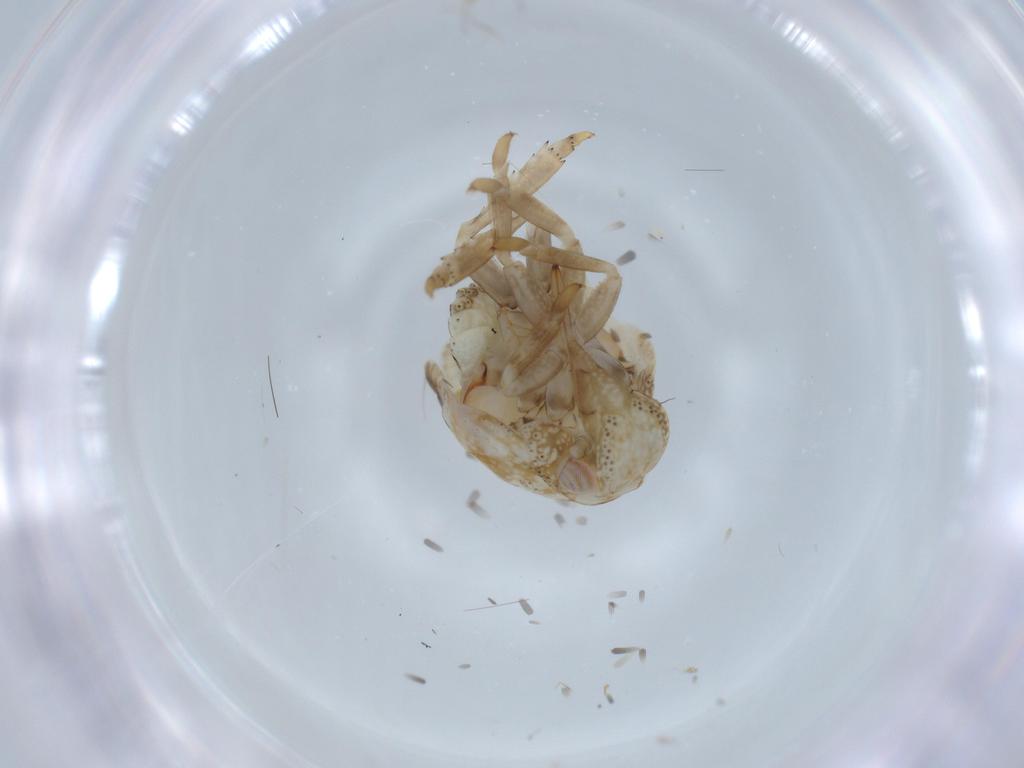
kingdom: Animalia
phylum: Arthropoda
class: Insecta
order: Hemiptera
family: Acanaloniidae
